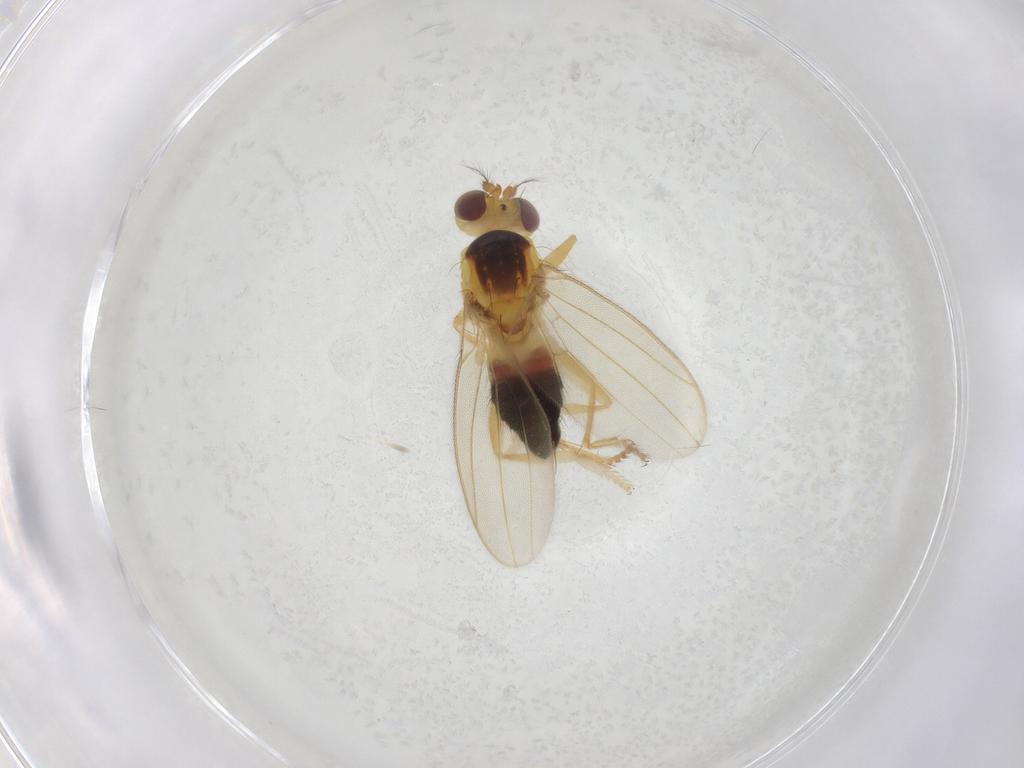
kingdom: Animalia
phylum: Arthropoda
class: Insecta
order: Diptera
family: Periscelididae
